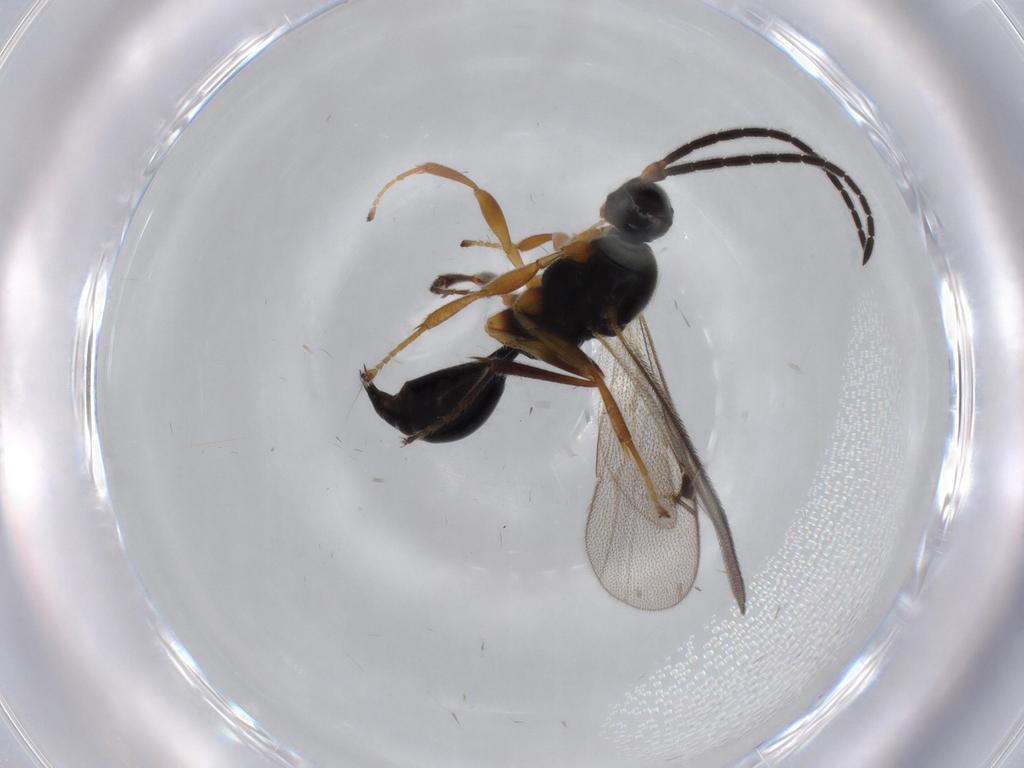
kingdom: Animalia
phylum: Arthropoda
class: Insecta
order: Hymenoptera
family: Proctotrupidae
